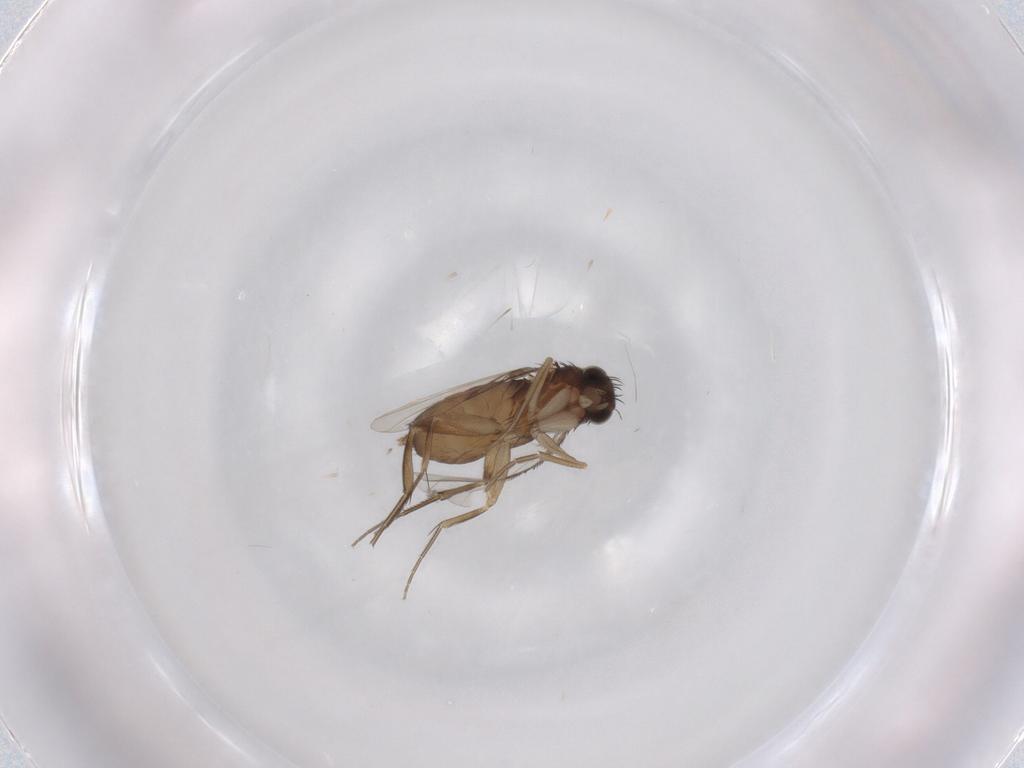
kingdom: Animalia
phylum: Arthropoda
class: Insecta
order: Diptera
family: Phoridae
